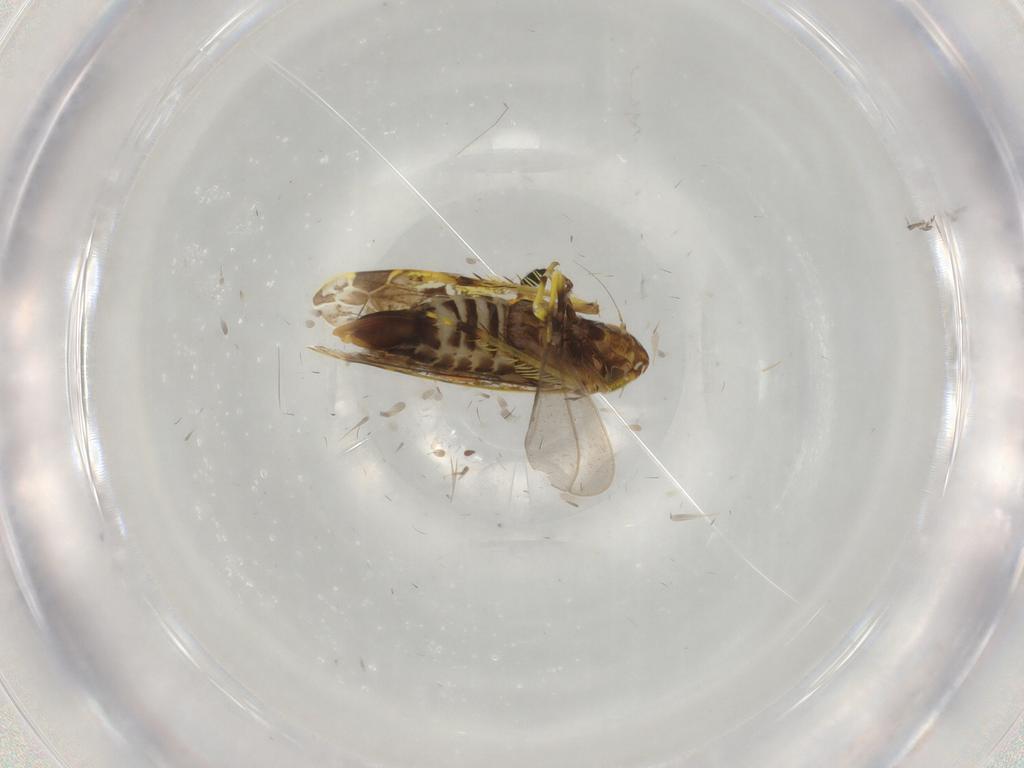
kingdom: Animalia
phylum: Arthropoda
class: Insecta
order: Hemiptera
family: Cicadellidae
